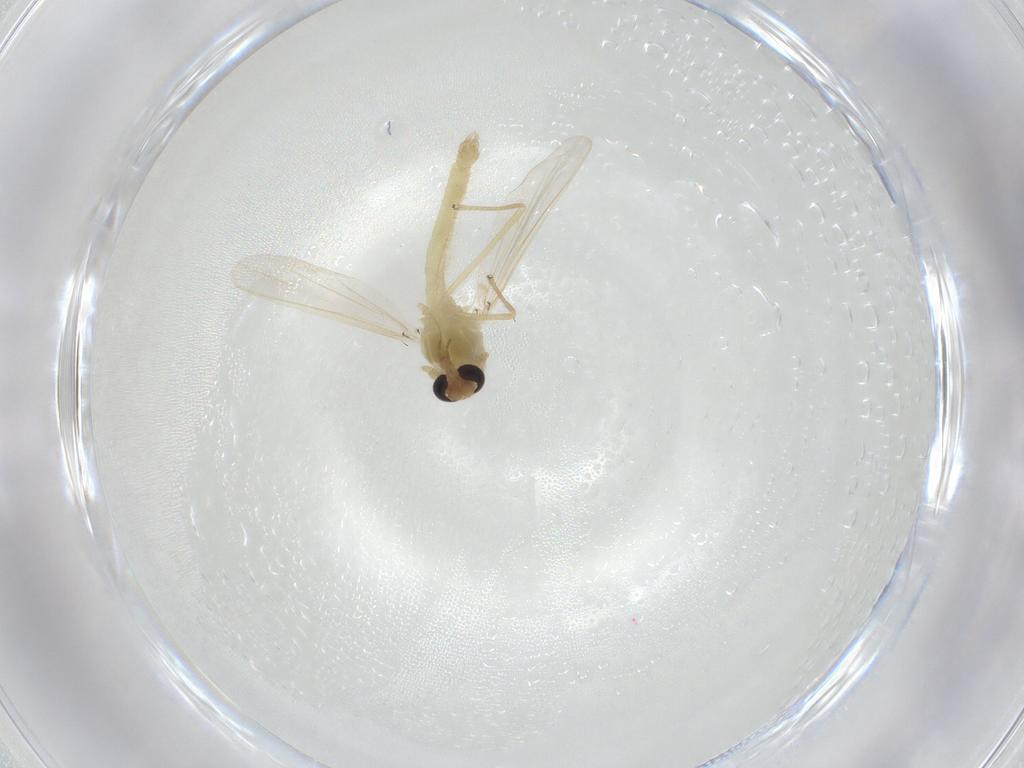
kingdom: Animalia
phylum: Arthropoda
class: Insecta
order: Diptera
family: Chironomidae
